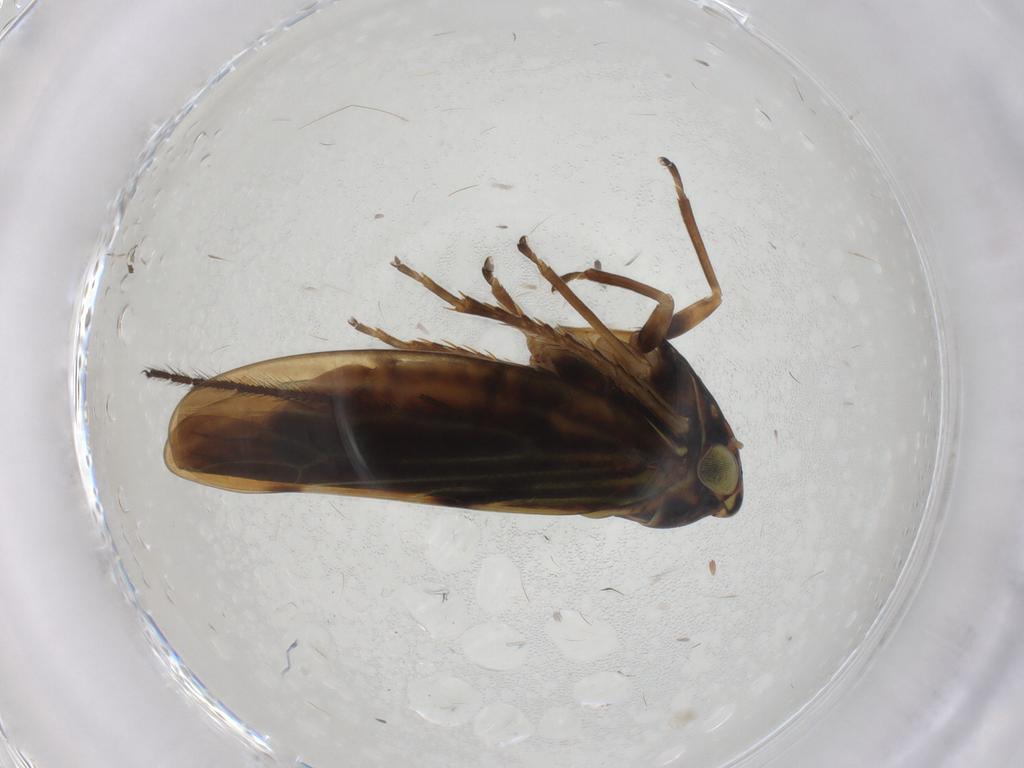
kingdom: Animalia
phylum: Arthropoda
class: Insecta
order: Hemiptera
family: Cicadellidae
